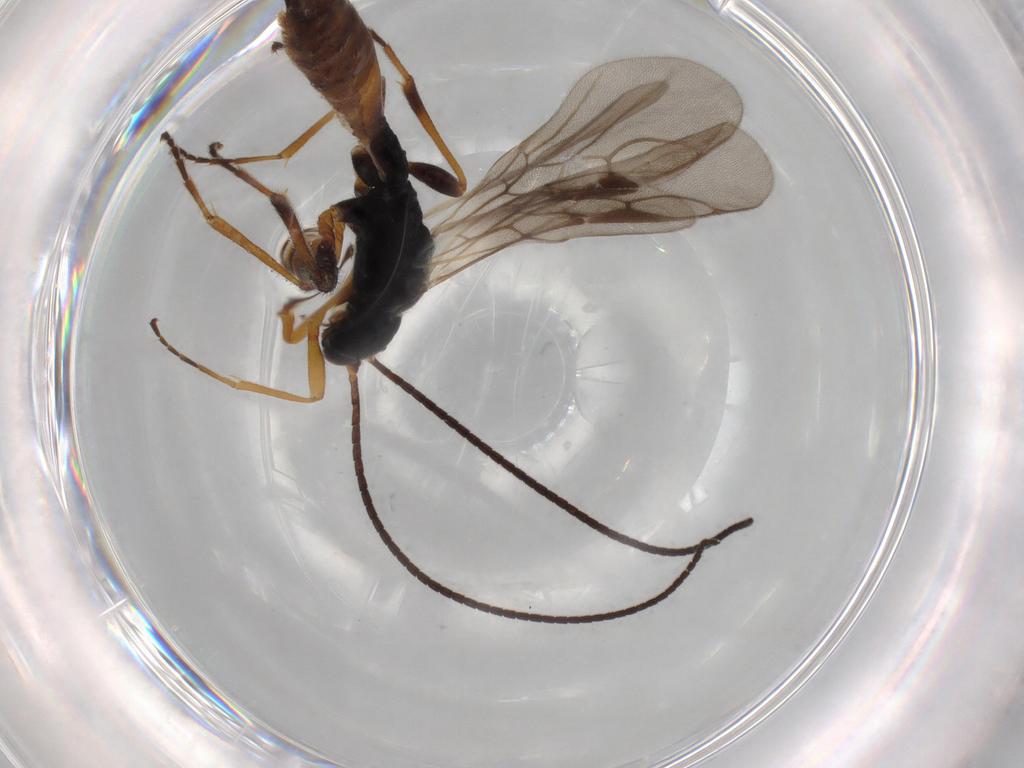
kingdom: Animalia
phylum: Arthropoda
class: Insecta
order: Hymenoptera
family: Braconidae
